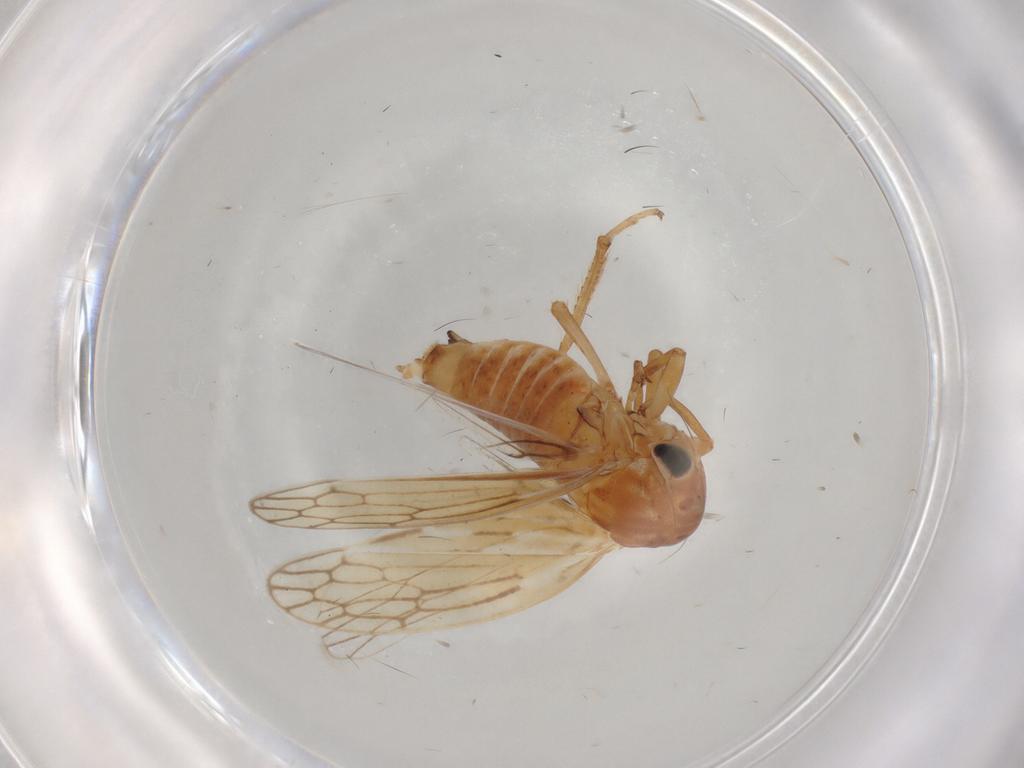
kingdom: Animalia
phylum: Arthropoda
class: Insecta
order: Hemiptera
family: Cicadellidae
